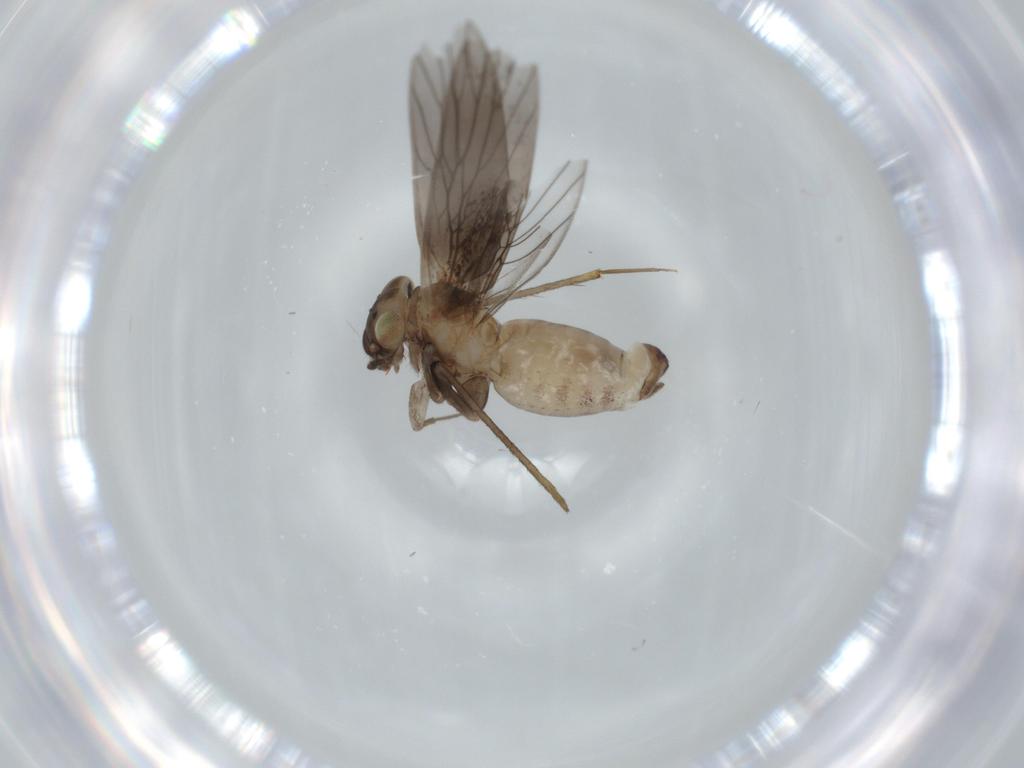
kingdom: Animalia
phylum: Arthropoda
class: Insecta
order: Psocodea
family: Lepidopsocidae
